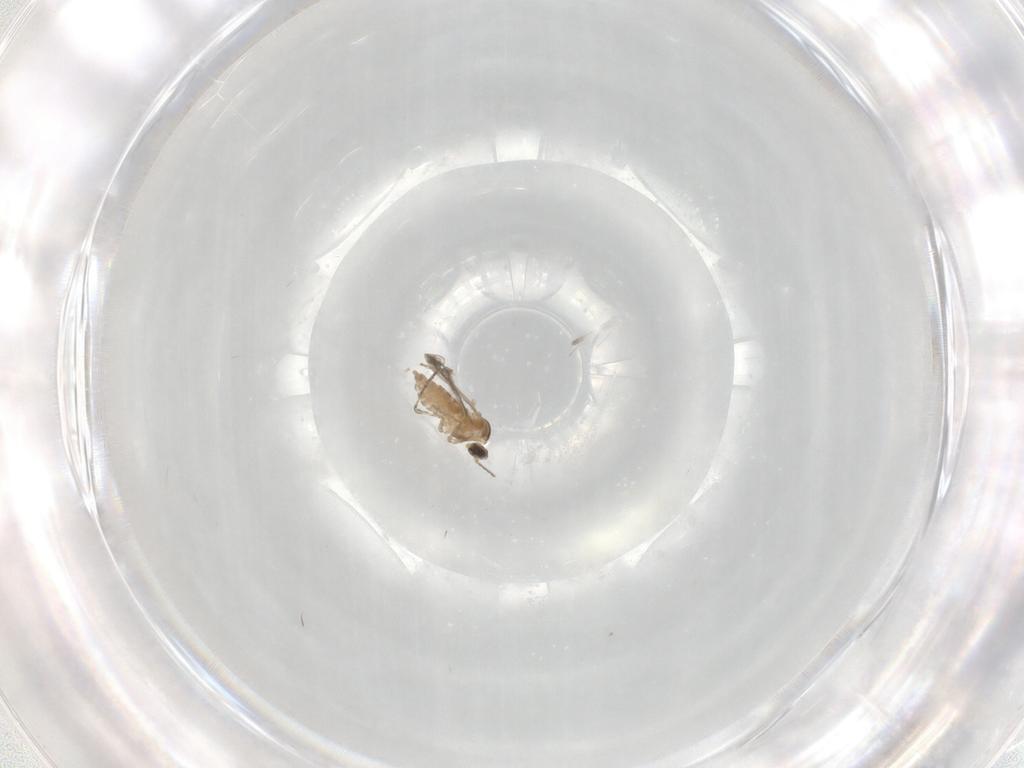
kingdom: Animalia
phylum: Arthropoda
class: Insecta
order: Diptera
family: Cecidomyiidae
